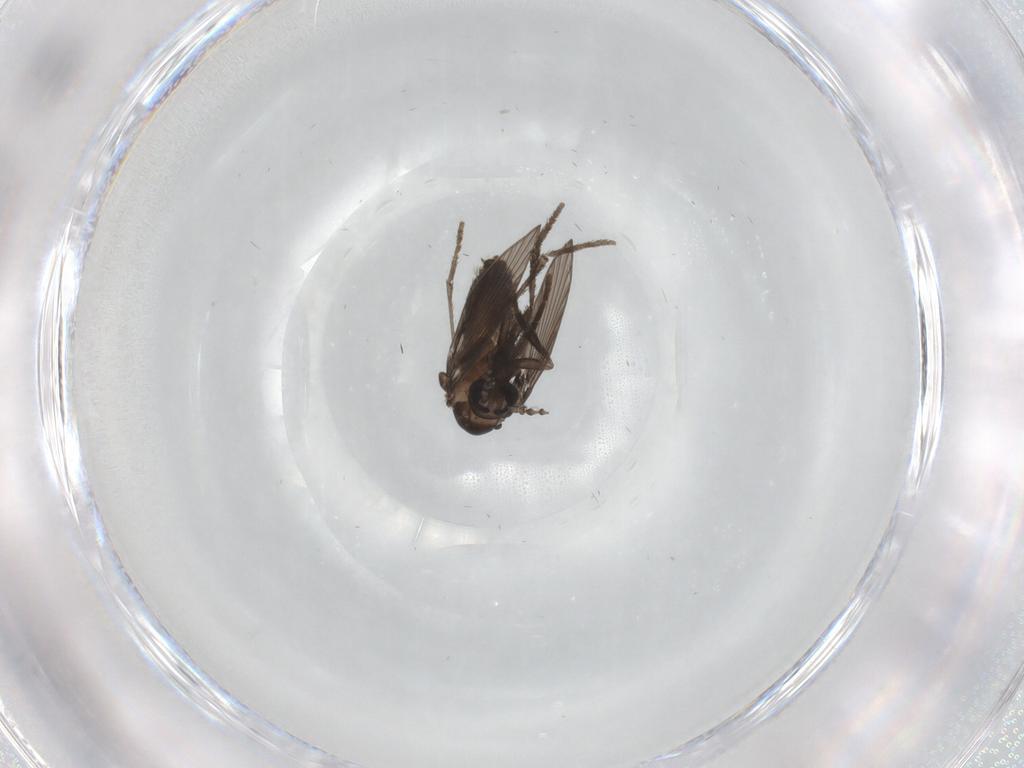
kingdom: Animalia
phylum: Arthropoda
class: Insecta
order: Diptera
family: Psychodidae
